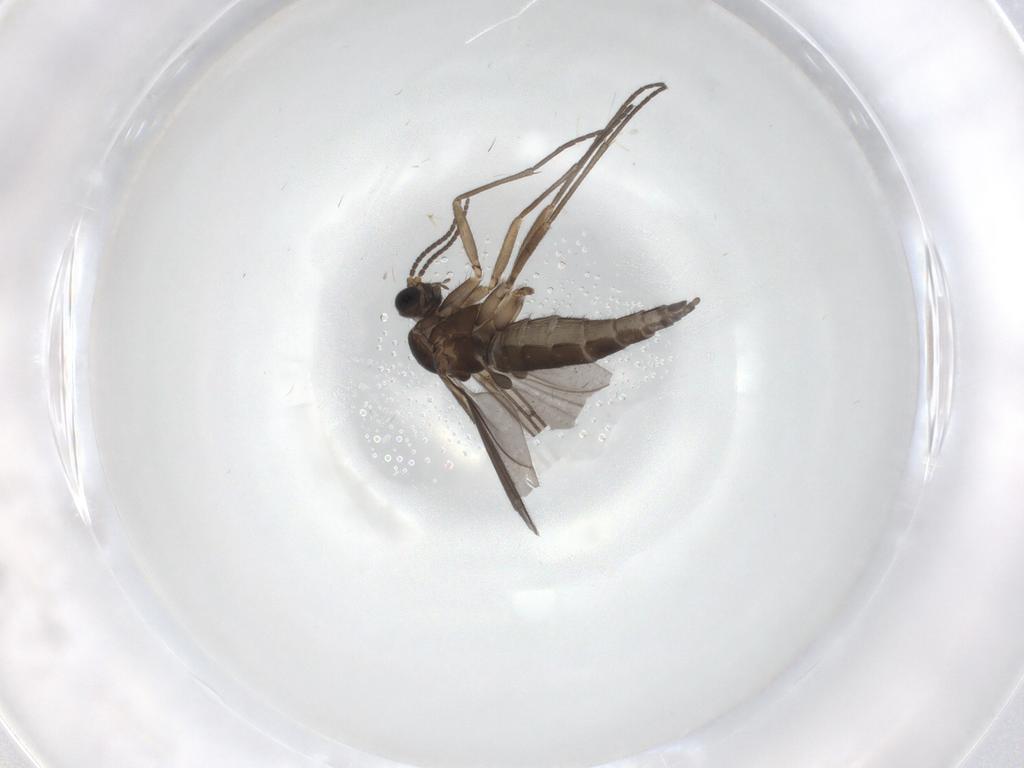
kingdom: Animalia
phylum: Arthropoda
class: Insecta
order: Diptera
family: Sciaridae
